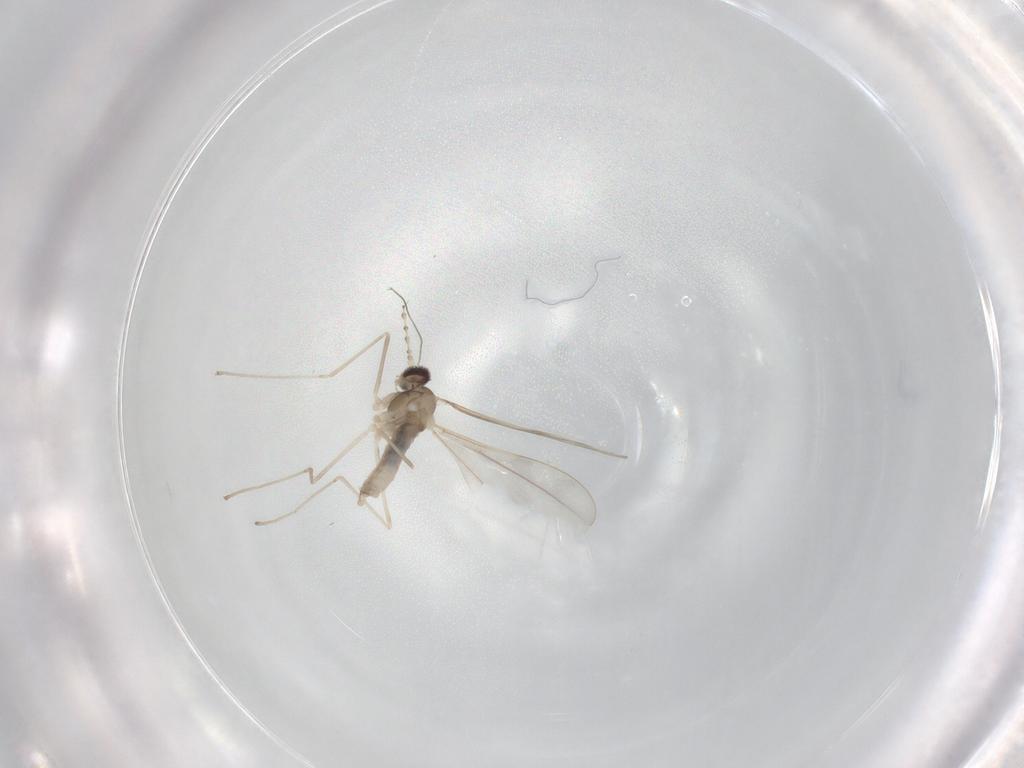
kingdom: Animalia
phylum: Arthropoda
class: Insecta
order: Diptera
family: Cecidomyiidae
